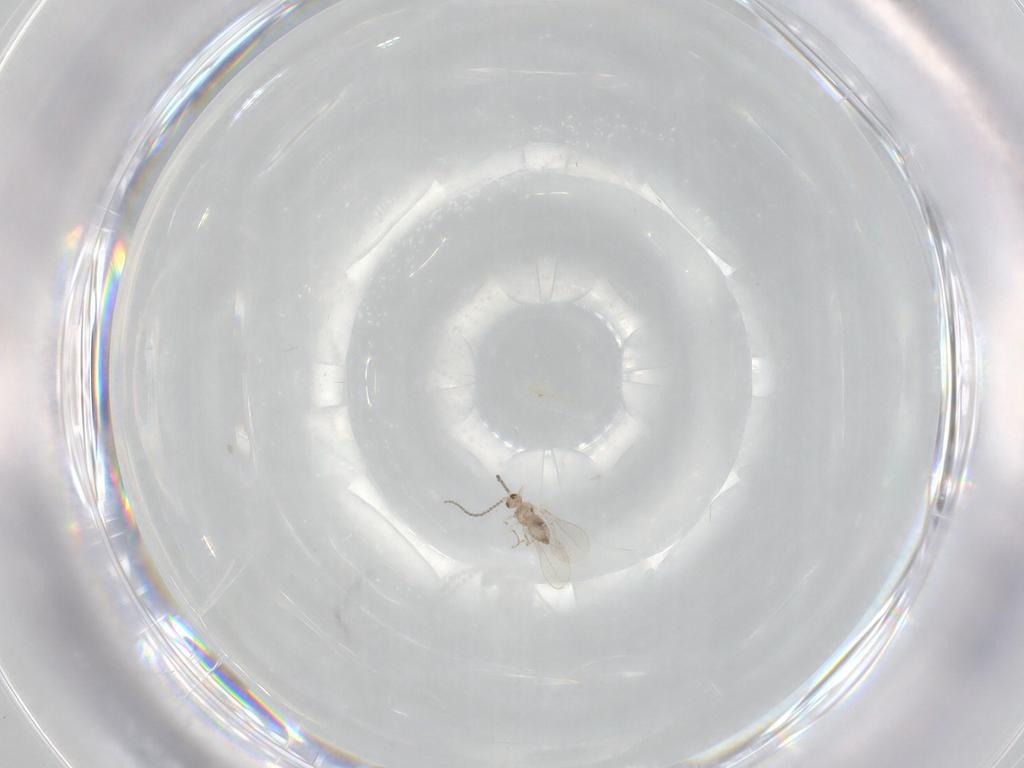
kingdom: Animalia
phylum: Arthropoda
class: Insecta
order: Diptera
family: Cecidomyiidae
